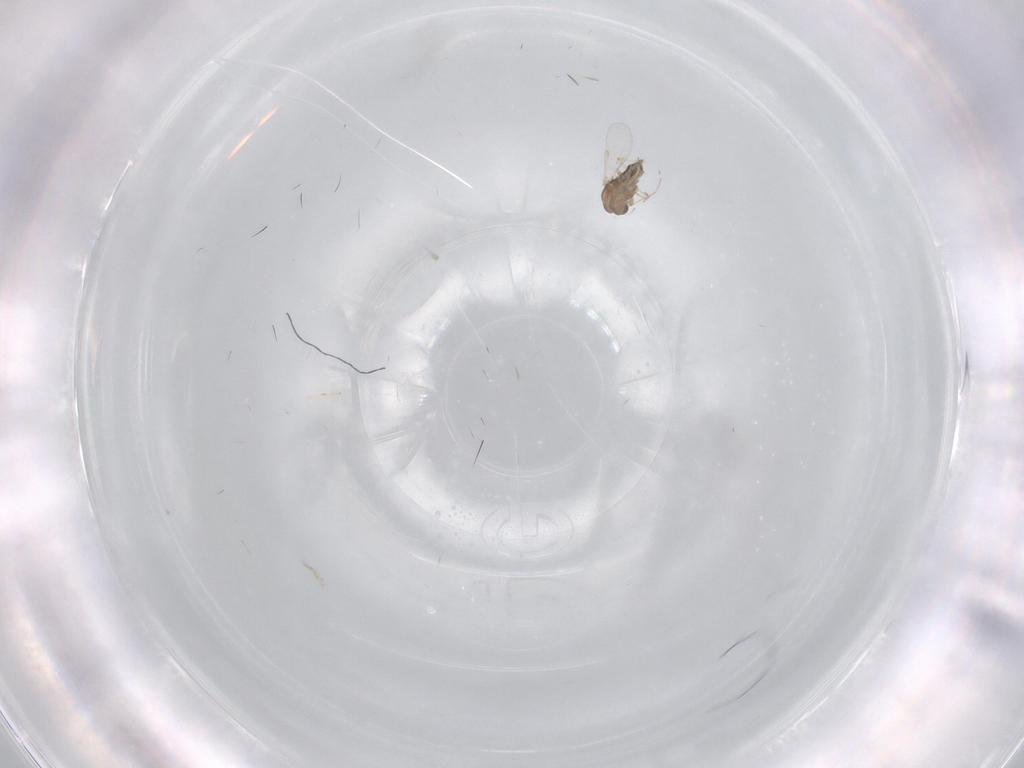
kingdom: Animalia
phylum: Arthropoda
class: Insecta
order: Diptera
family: Chironomidae
